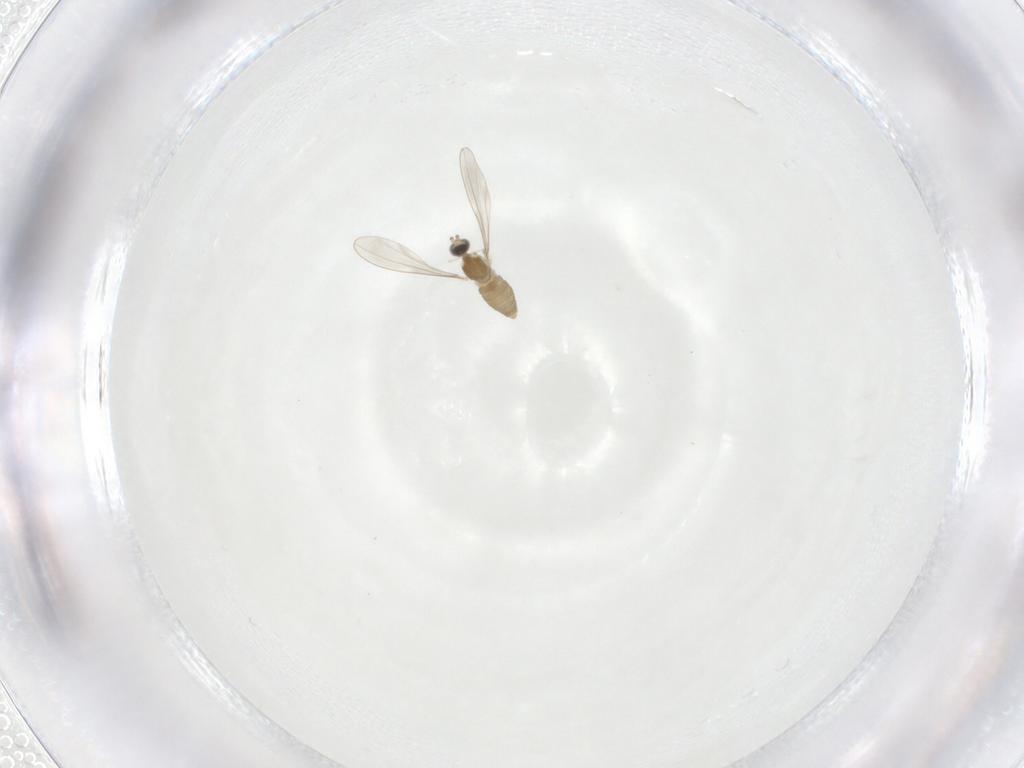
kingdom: Animalia
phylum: Arthropoda
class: Insecta
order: Diptera
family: Cecidomyiidae
